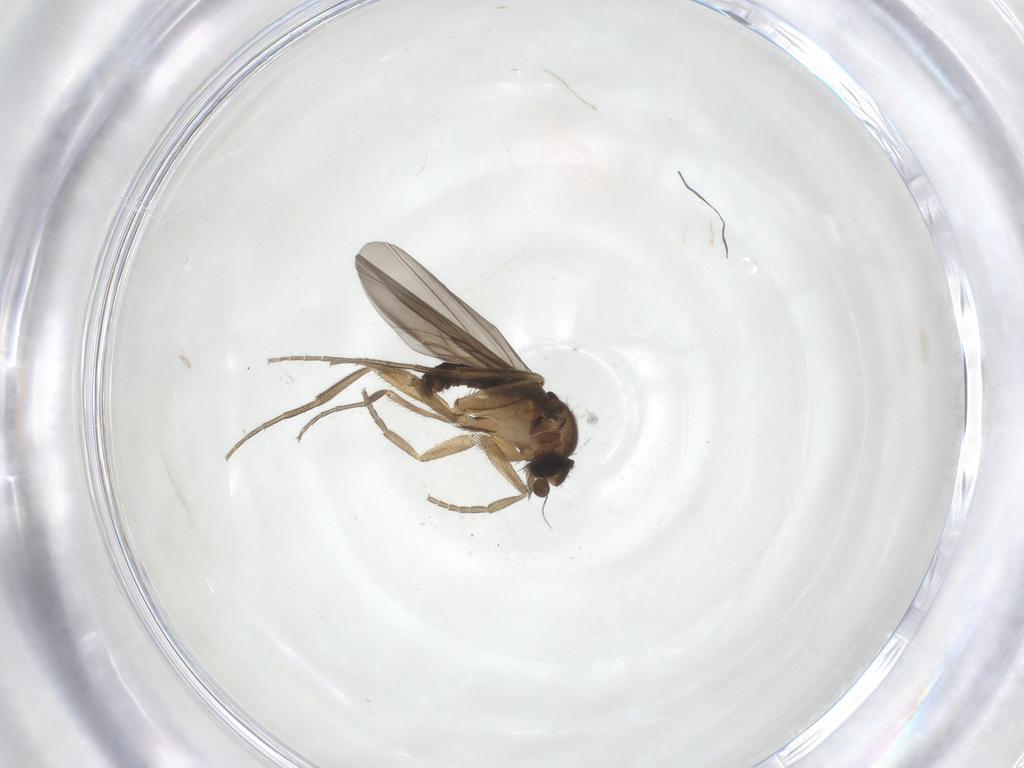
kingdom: Animalia
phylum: Arthropoda
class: Insecta
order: Diptera
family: Phoridae
